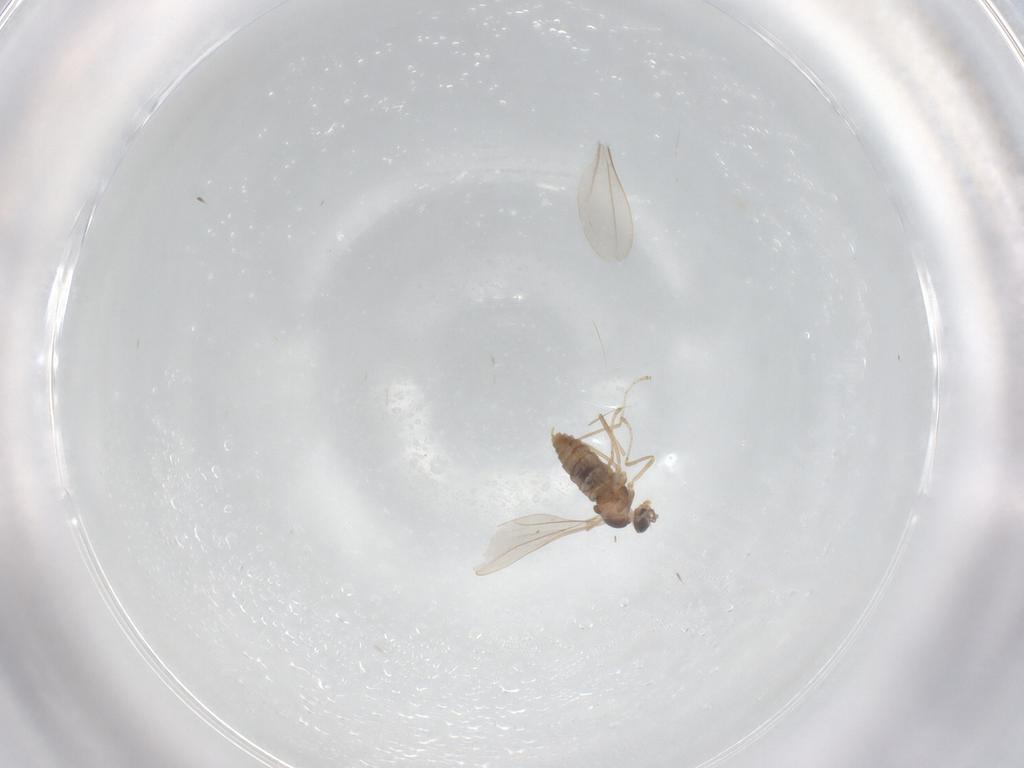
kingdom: Animalia
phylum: Arthropoda
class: Insecta
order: Diptera
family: Cecidomyiidae
